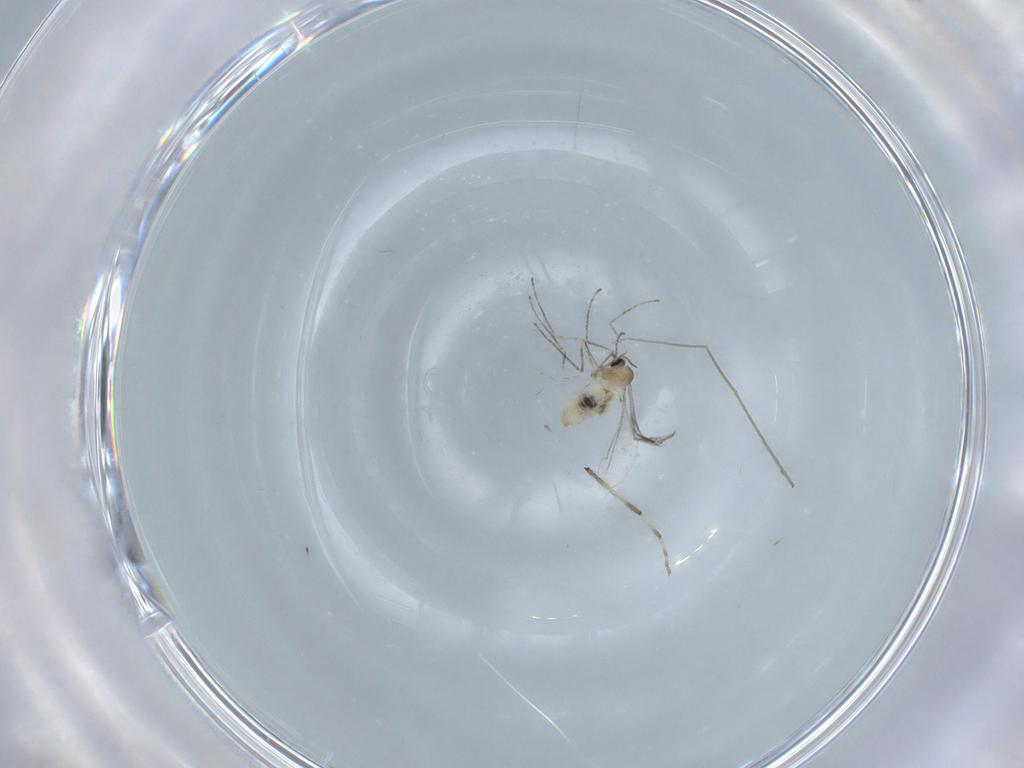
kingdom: Animalia
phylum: Arthropoda
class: Insecta
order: Diptera
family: Cecidomyiidae
